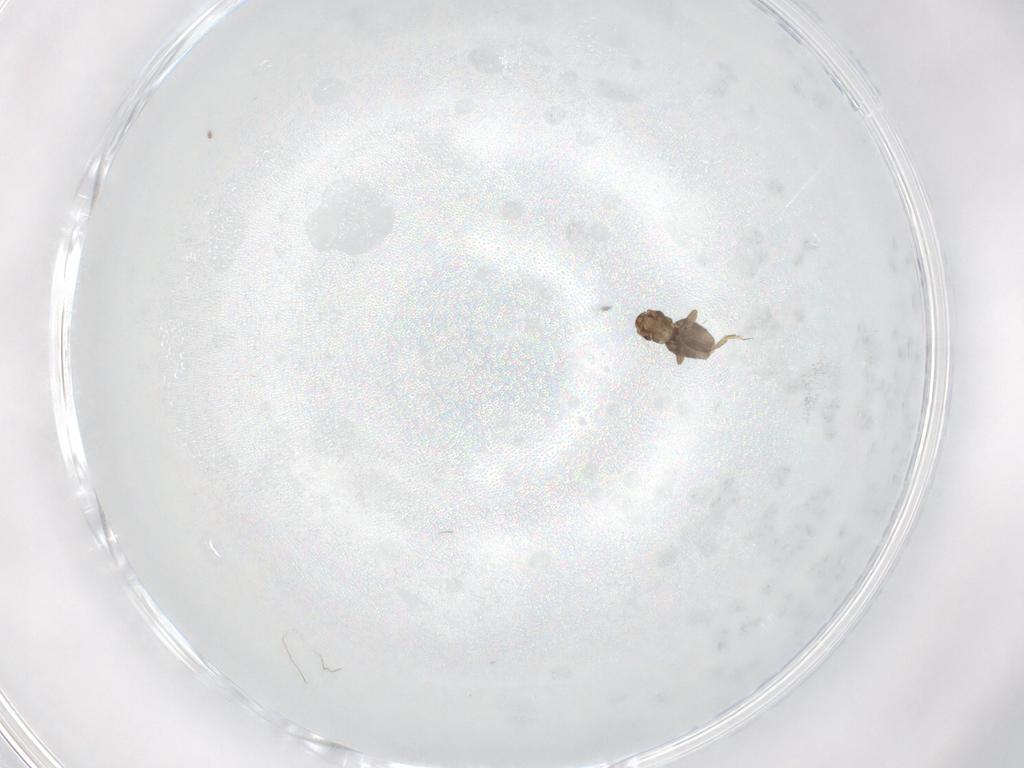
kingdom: Animalia
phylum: Arthropoda
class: Insecta
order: Diptera
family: Cecidomyiidae
